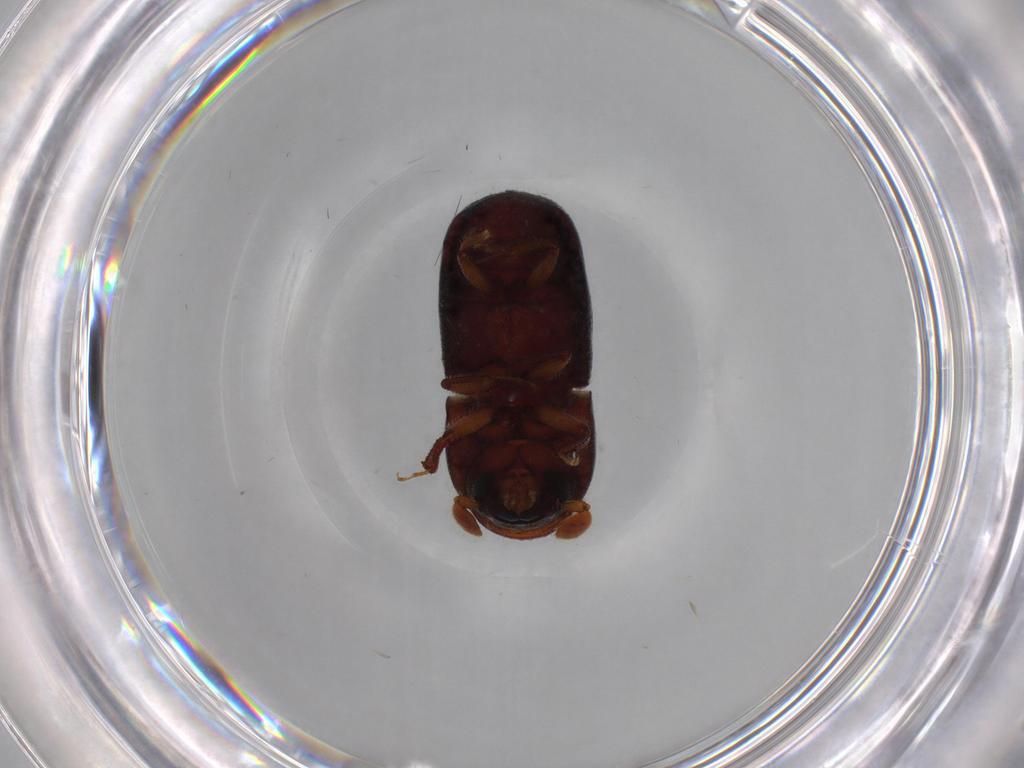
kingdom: Animalia
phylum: Arthropoda
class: Insecta
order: Coleoptera
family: Curculionidae
